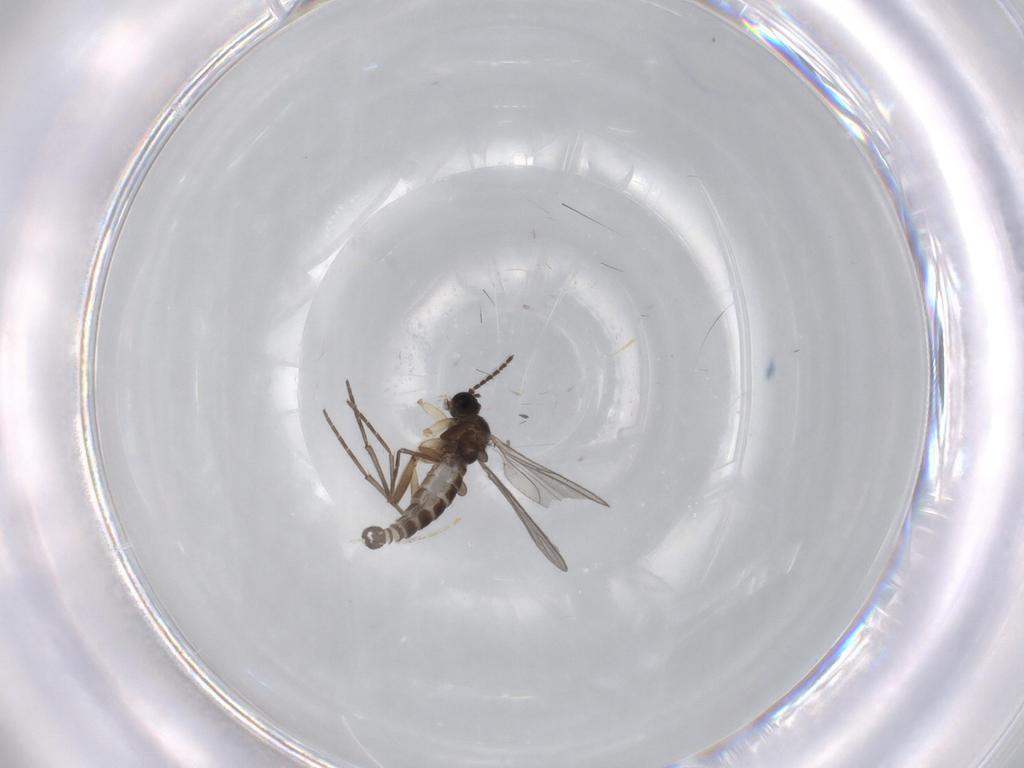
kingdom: Animalia
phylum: Arthropoda
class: Insecta
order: Diptera
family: Cecidomyiidae
